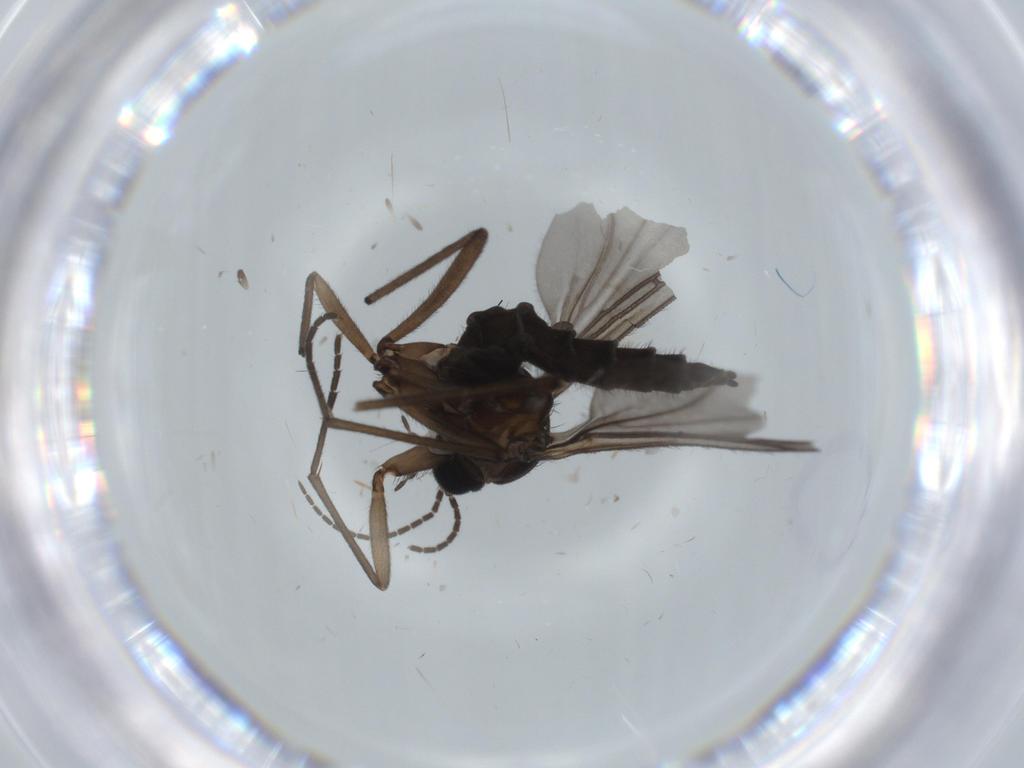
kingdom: Animalia
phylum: Arthropoda
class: Insecta
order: Diptera
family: Sciaridae
